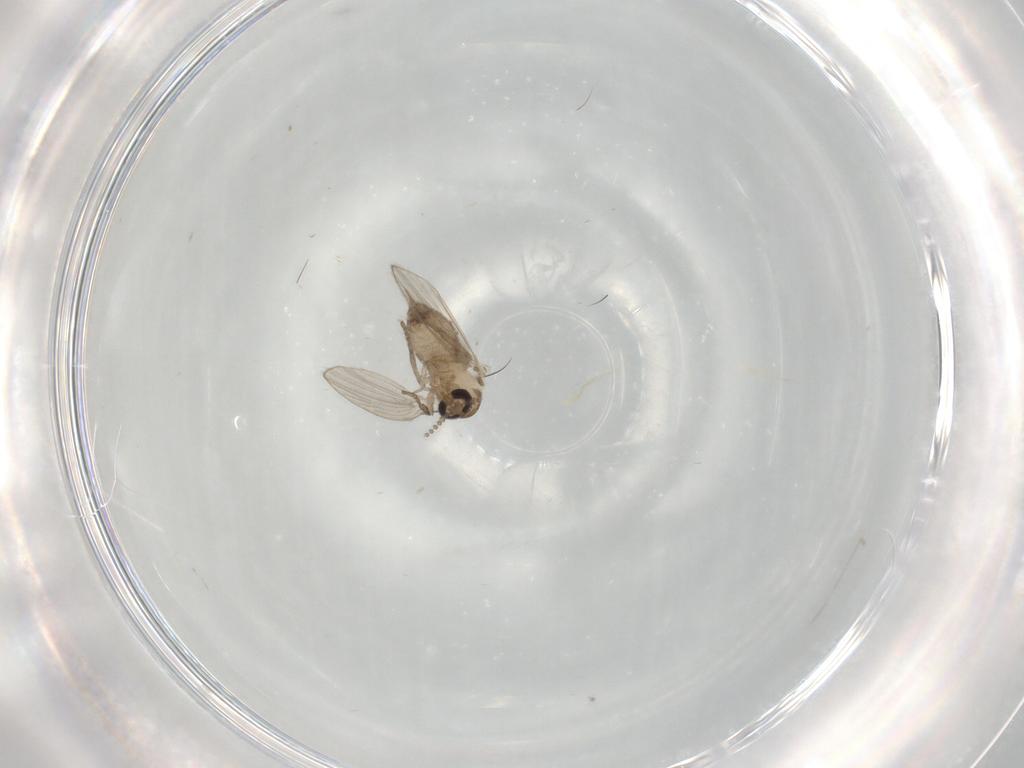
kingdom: Animalia
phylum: Arthropoda
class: Insecta
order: Diptera
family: Psychodidae
